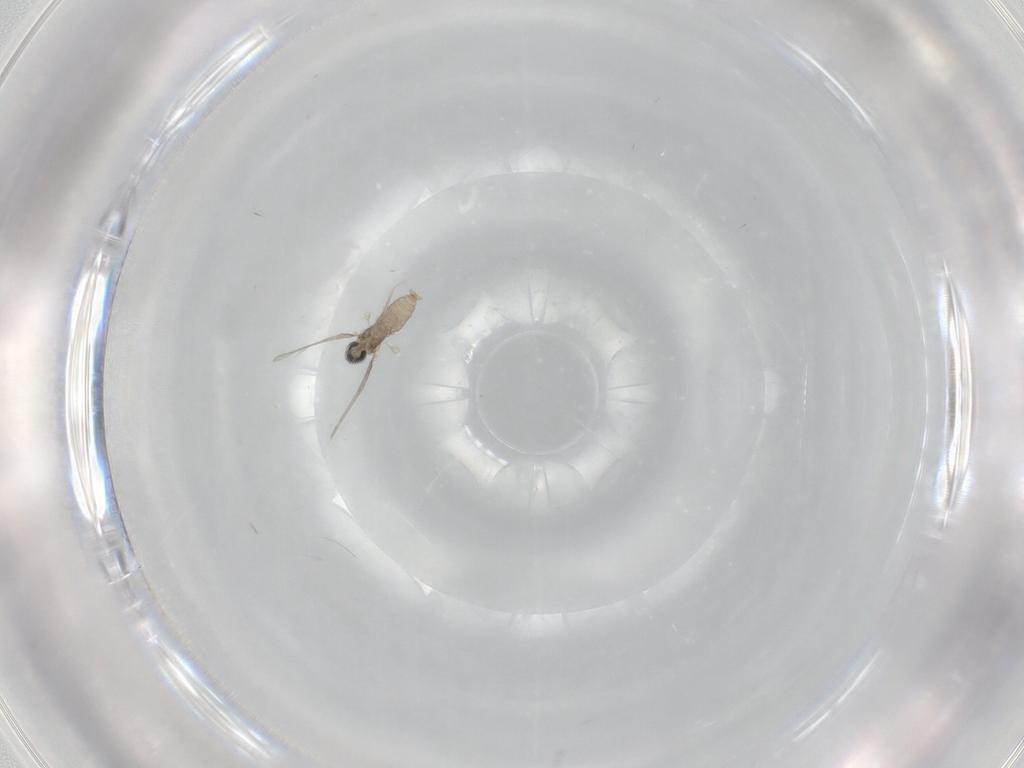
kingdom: Animalia
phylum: Arthropoda
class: Insecta
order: Diptera
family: Cecidomyiidae
